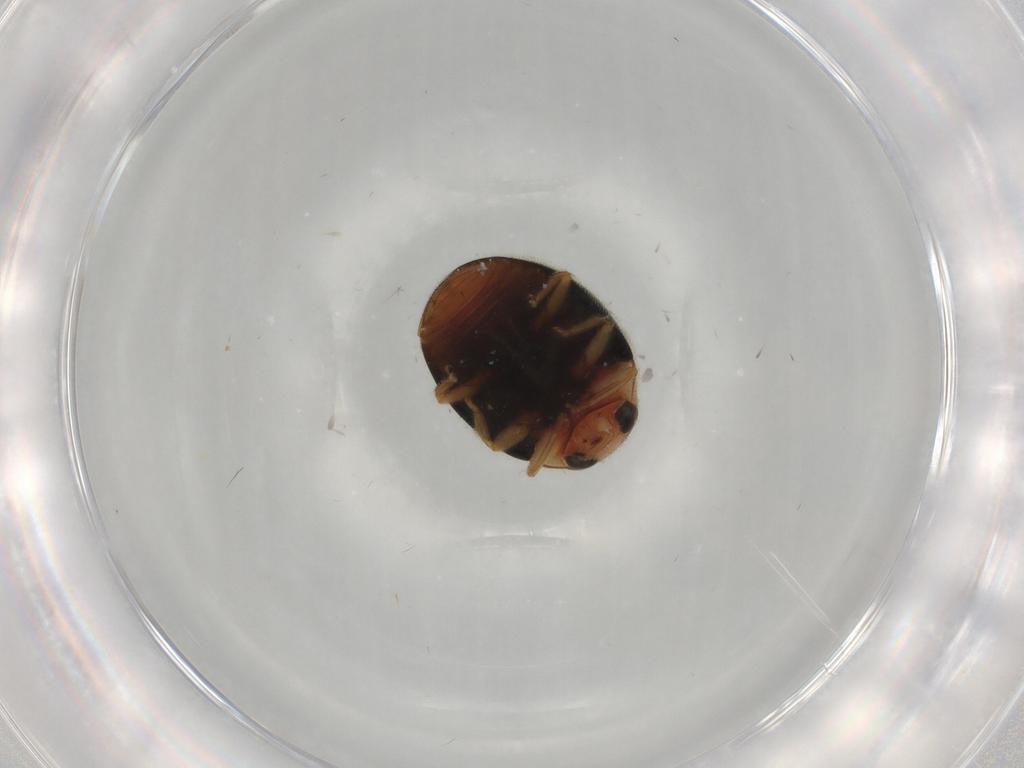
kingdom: Animalia
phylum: Arthropoda
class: Insecta
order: Coleoptera
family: Coccinellidae
